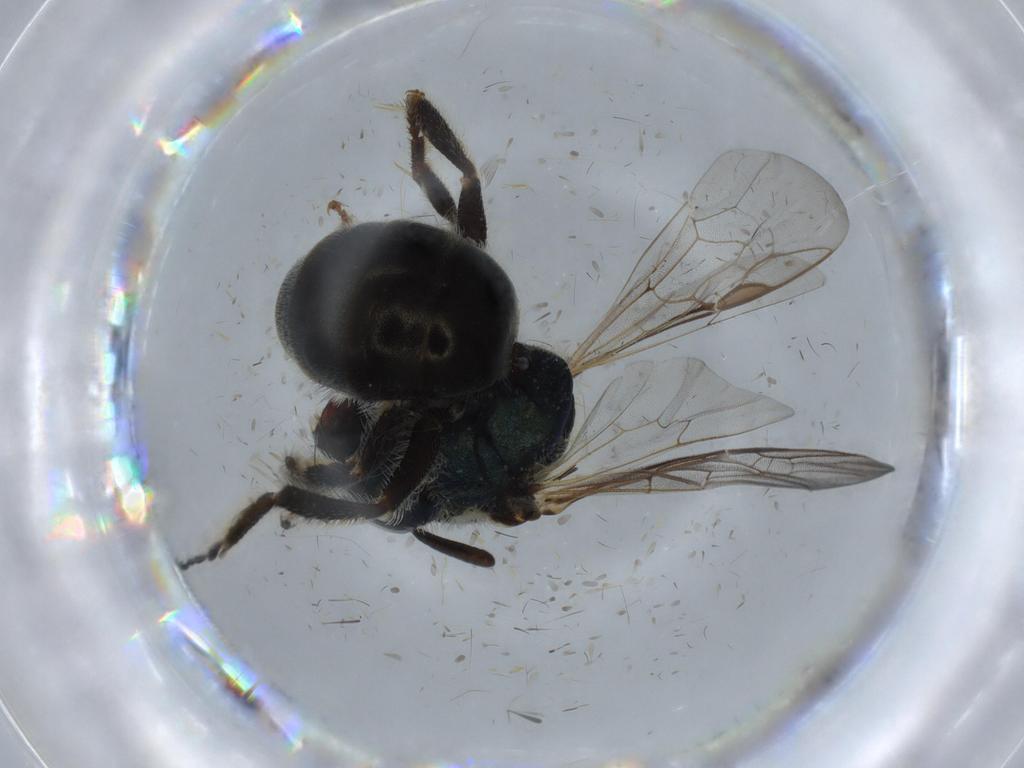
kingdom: Animalia
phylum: Arthropoda
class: Insecta
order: Hymenoptera
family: Halictidae
